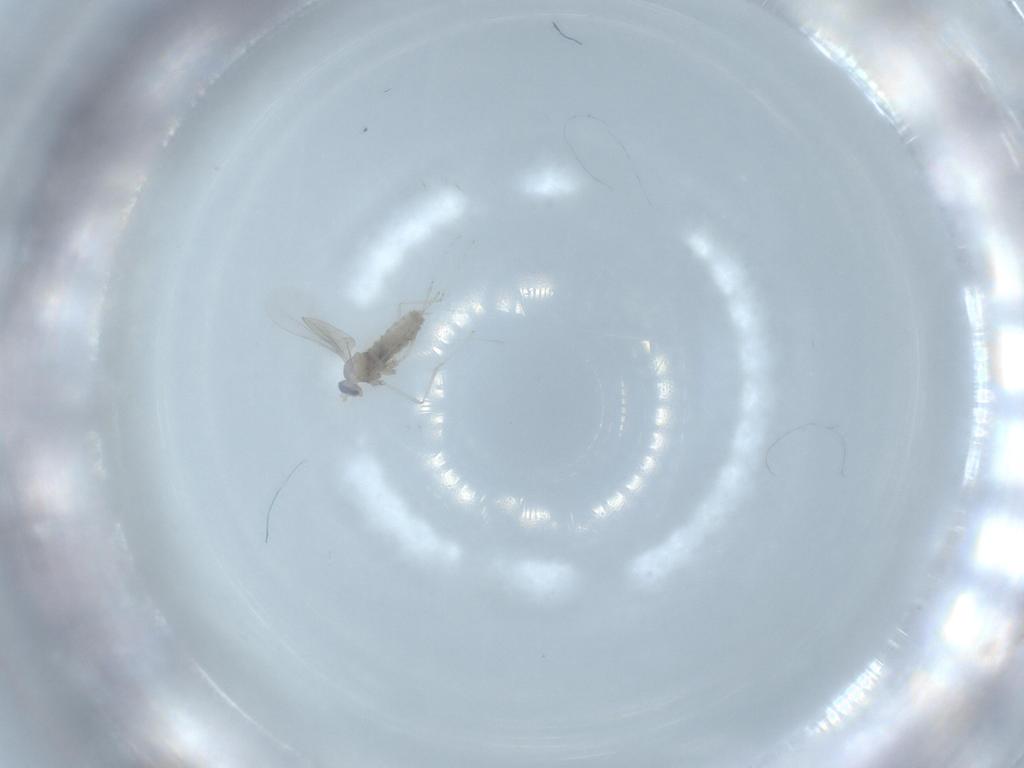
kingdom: Animalia
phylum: Arthropoda
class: Insecta
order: Diptera
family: Cecidomyiidae
